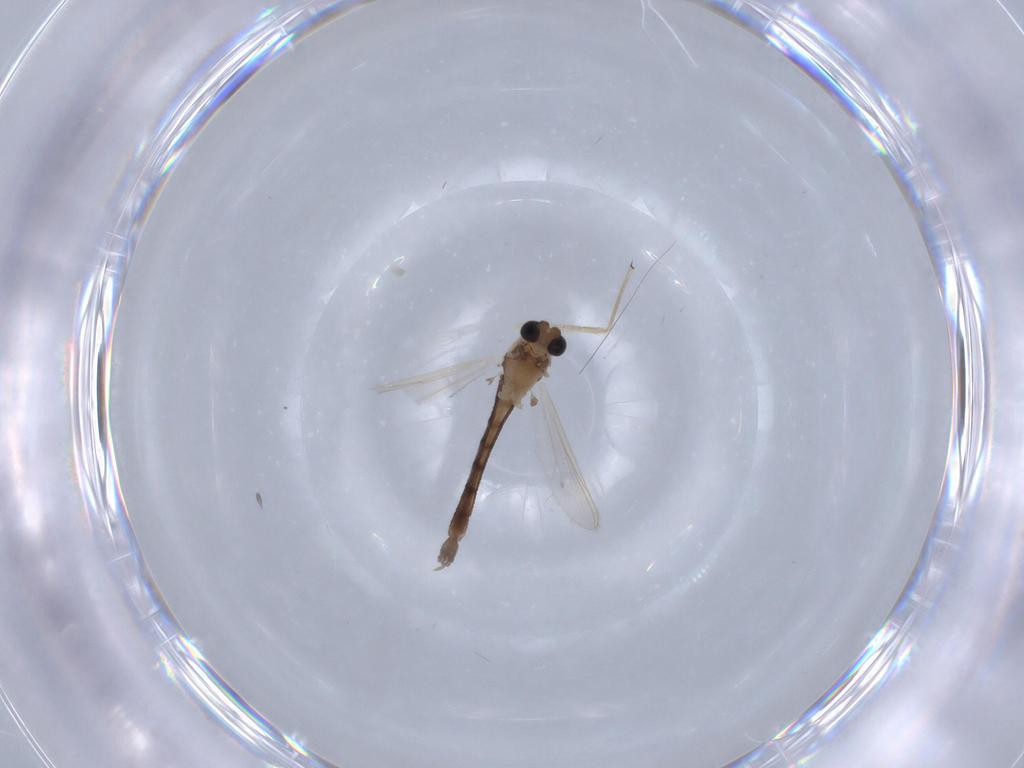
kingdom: Animalia
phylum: Arthropoda
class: Insecta
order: Diptera
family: Chironomidae
